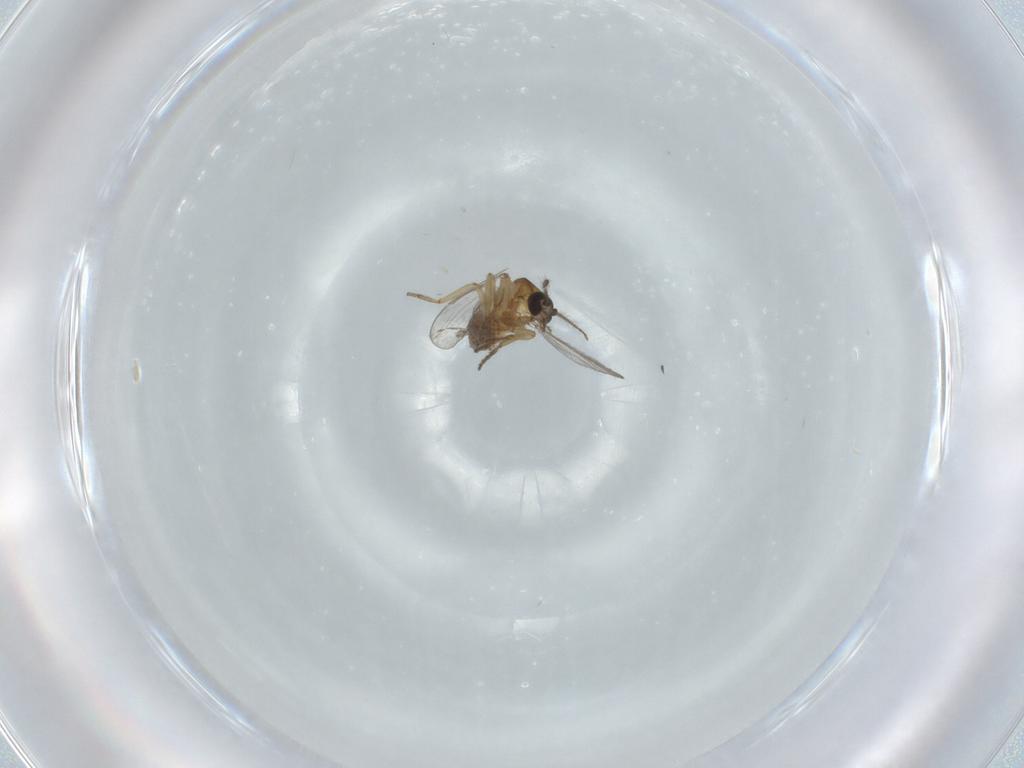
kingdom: Animalia
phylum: Arthropoda
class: Insecta
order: Diptera
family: Ceratopogonidae
